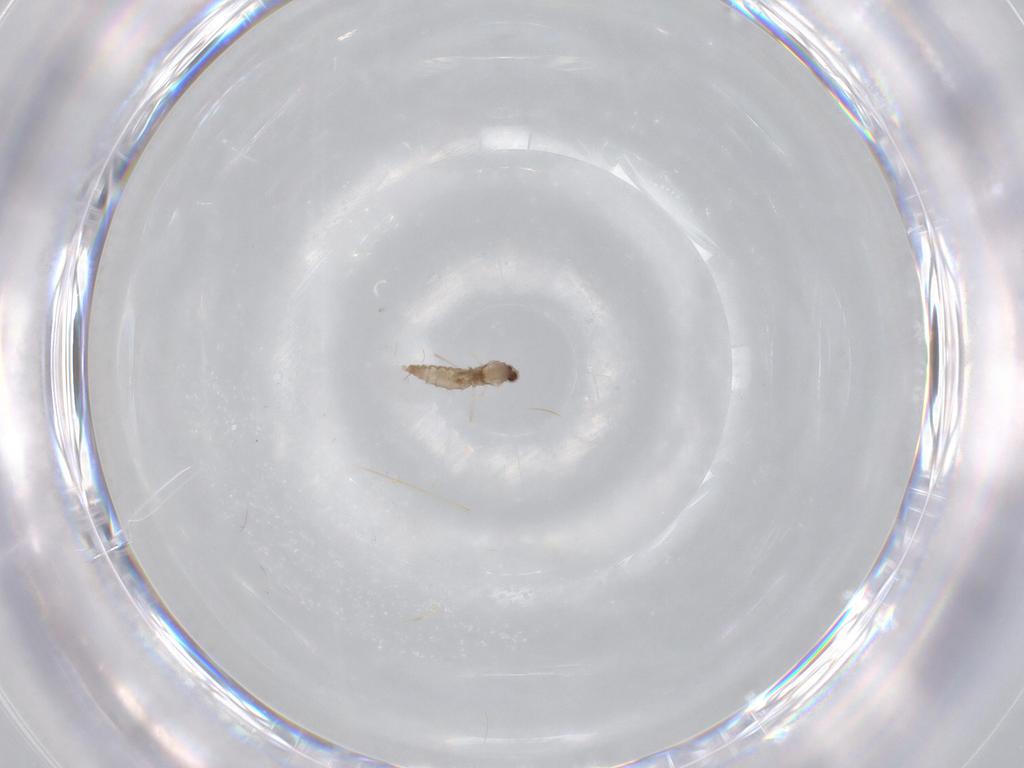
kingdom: Animalia
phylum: Arthropoda
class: Insecta
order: Diptera
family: Cecidomyiidae
